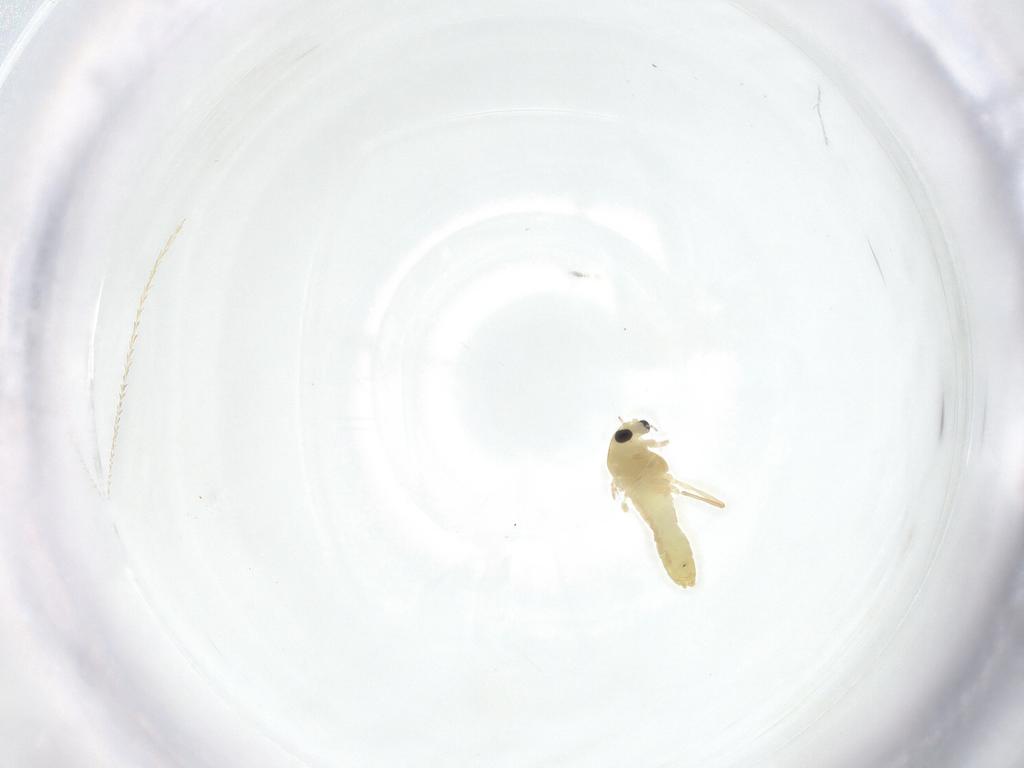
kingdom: Animalia
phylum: Arthropoda
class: Insecta
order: Diptera
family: Chironomidae
